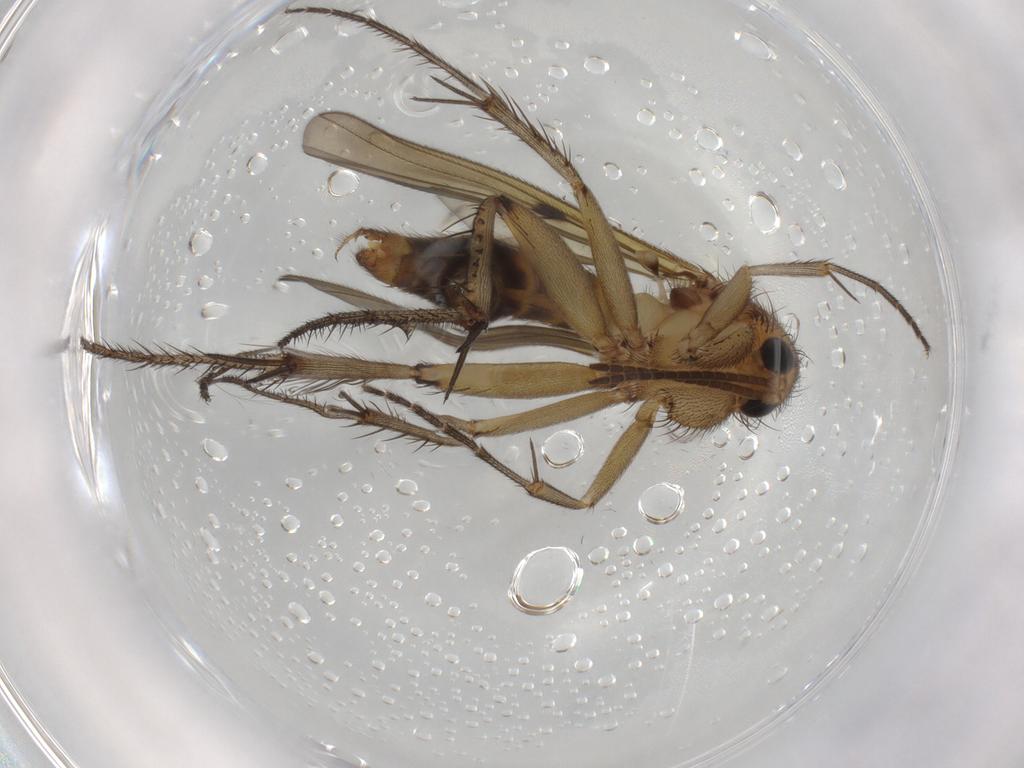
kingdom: Animalia
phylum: Arthropoda
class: Insecta
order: Diptera
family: Mycetophilidae
